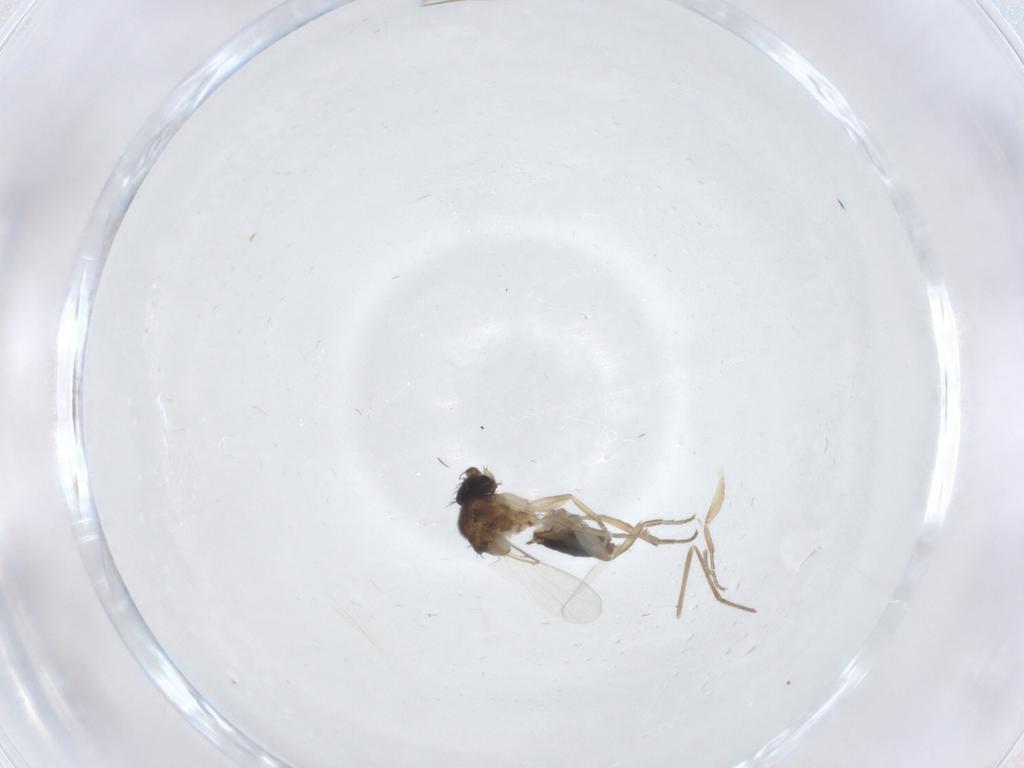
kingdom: Animalia
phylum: Arthropoda
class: Insecta
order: Diptera
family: Phoridae
